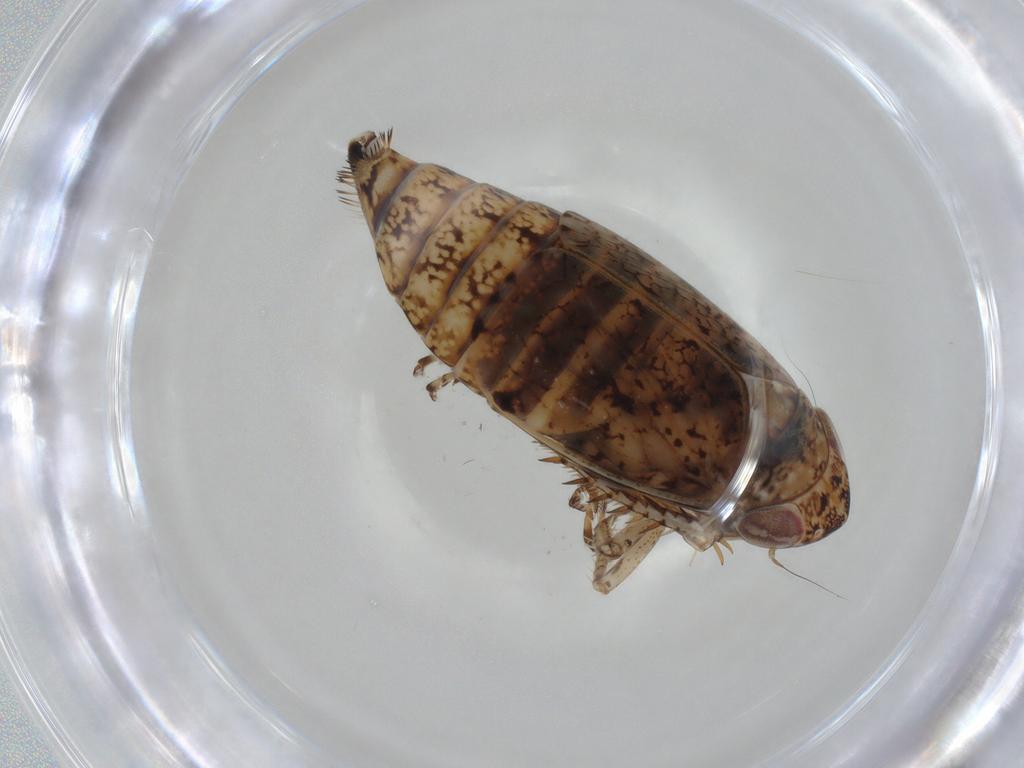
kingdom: Animalia
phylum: Arthropoda
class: Insecta
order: Hemiptera
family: Cicadellidae
